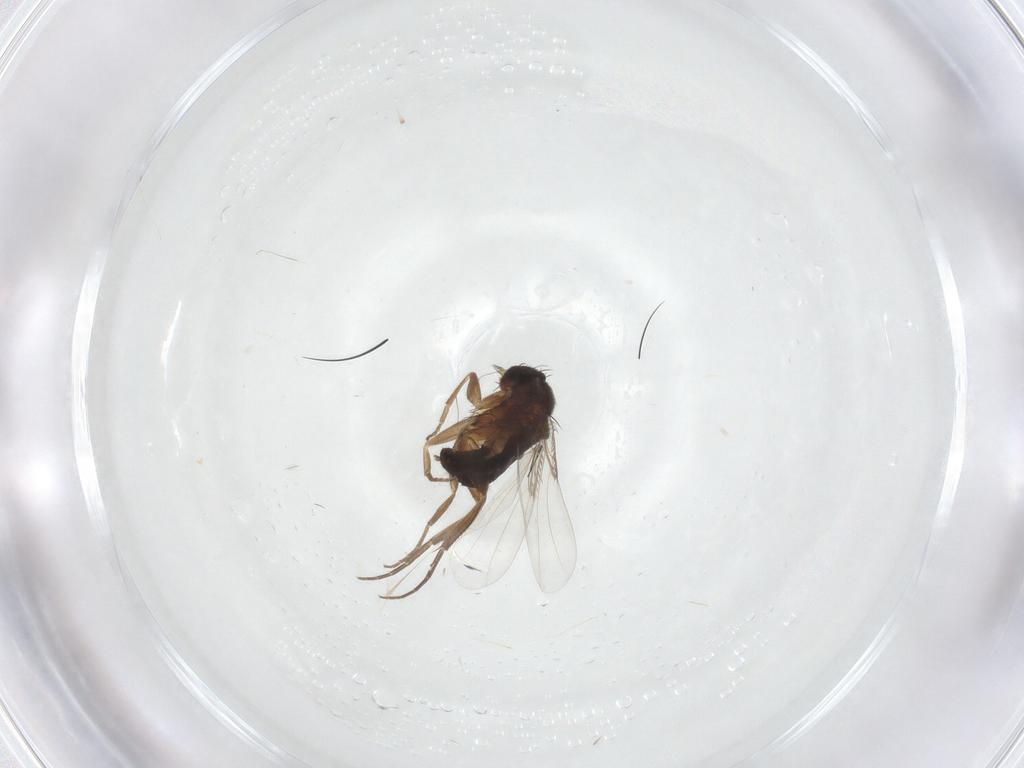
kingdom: Animalia
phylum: Arthropoda
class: Insecta
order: Diptera
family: Phoridae
